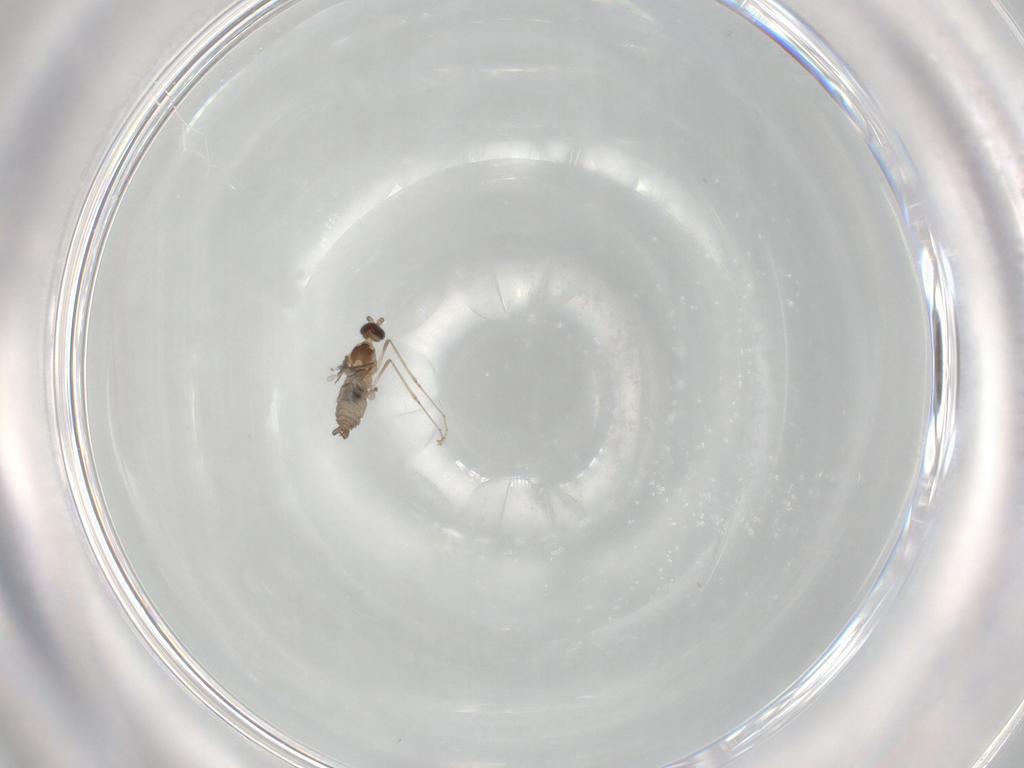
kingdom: Animalia
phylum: Arthropoda
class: Insecta
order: Diptera
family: Cecidomyiidae
